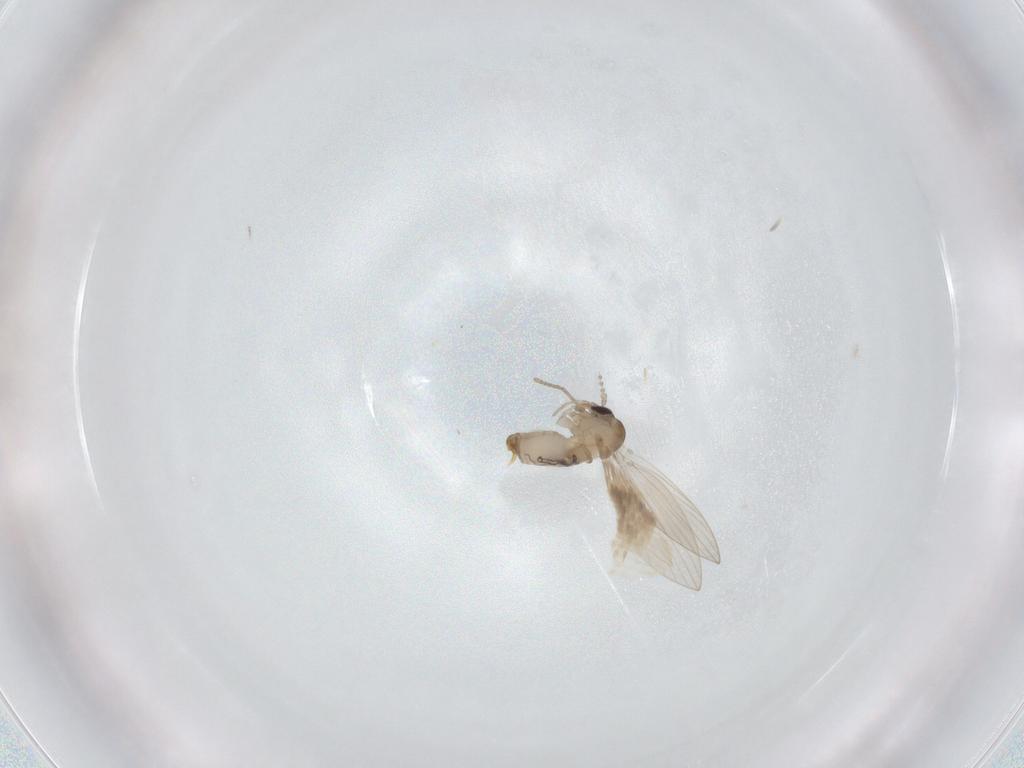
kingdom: Animalia
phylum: Arthropoda
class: Insecta
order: Diptera
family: Psychodidae
